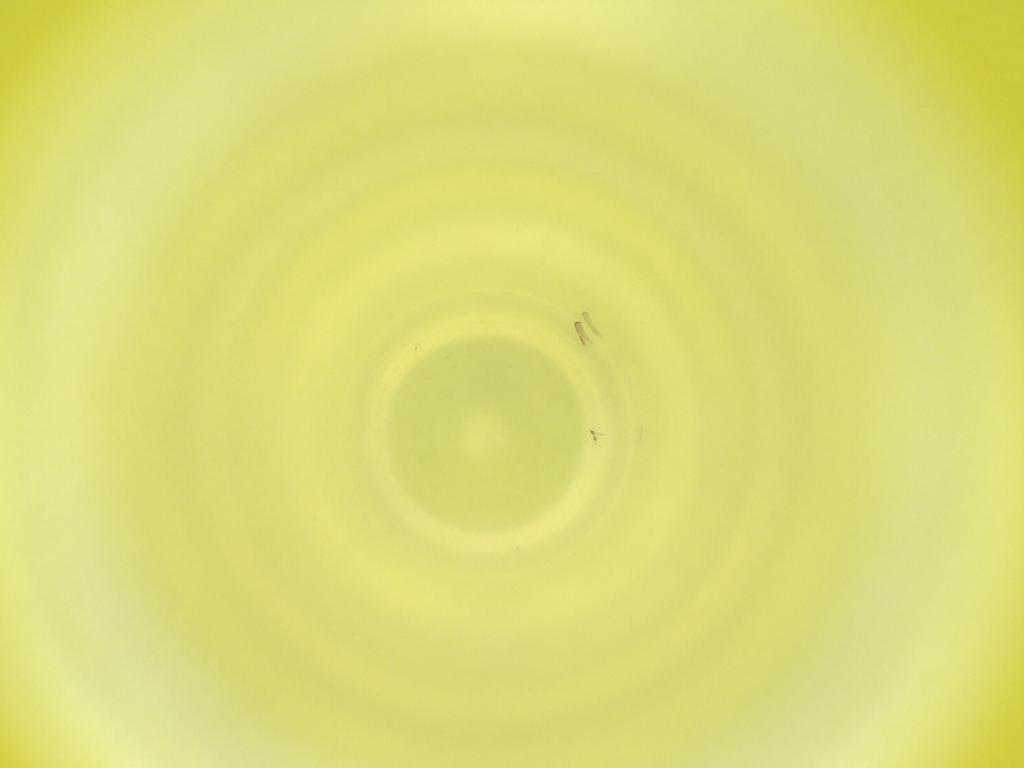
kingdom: Animalia
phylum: Arthropoda
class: Insecta
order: Diptera
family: Cecidomyiidae
